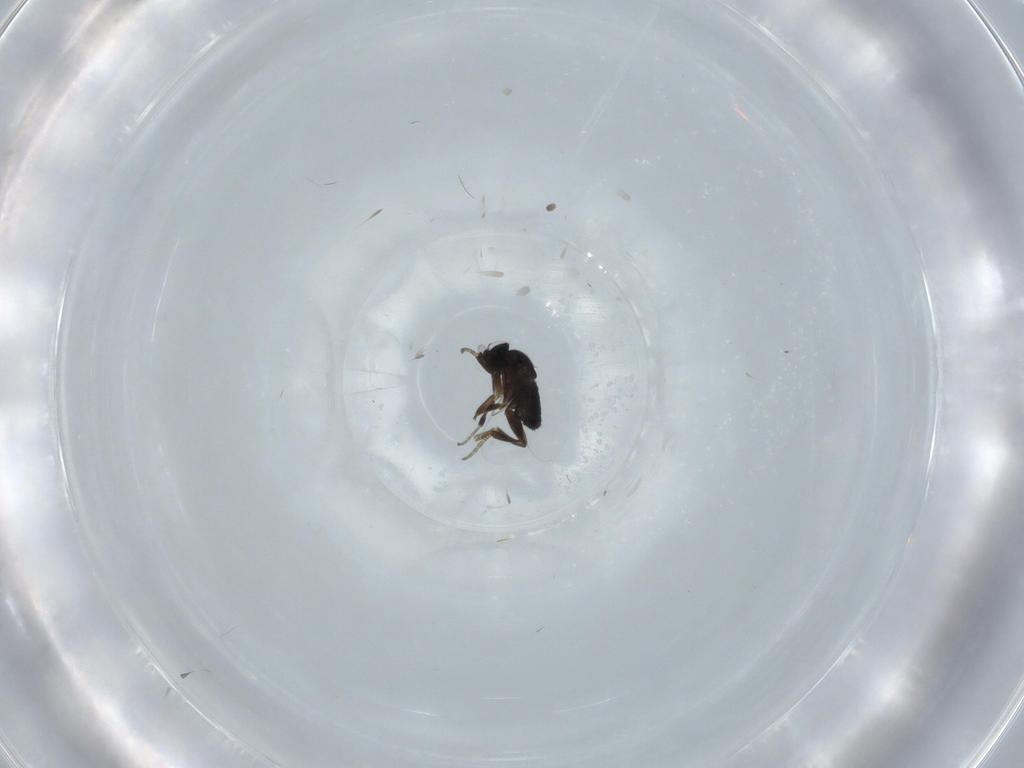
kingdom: Animalia
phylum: Arthropoda
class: Insecta
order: Diptera
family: Phoridae
